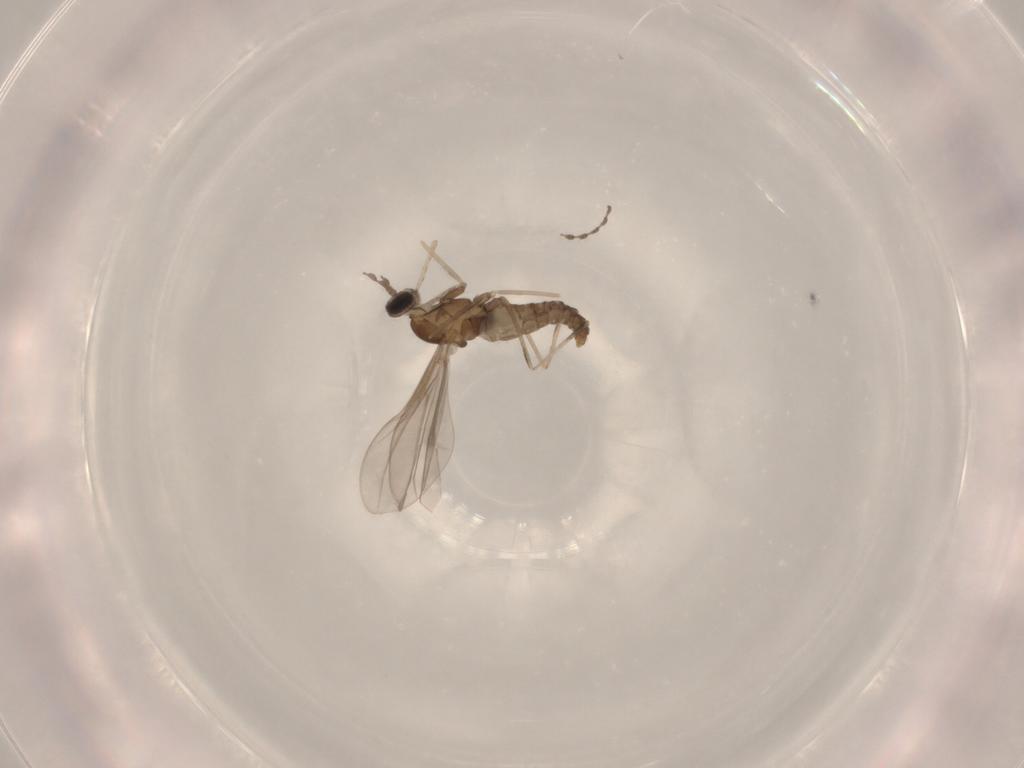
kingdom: Animalia
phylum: Arthropoda
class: Insecta
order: Diptera
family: Cecidomyiidae
